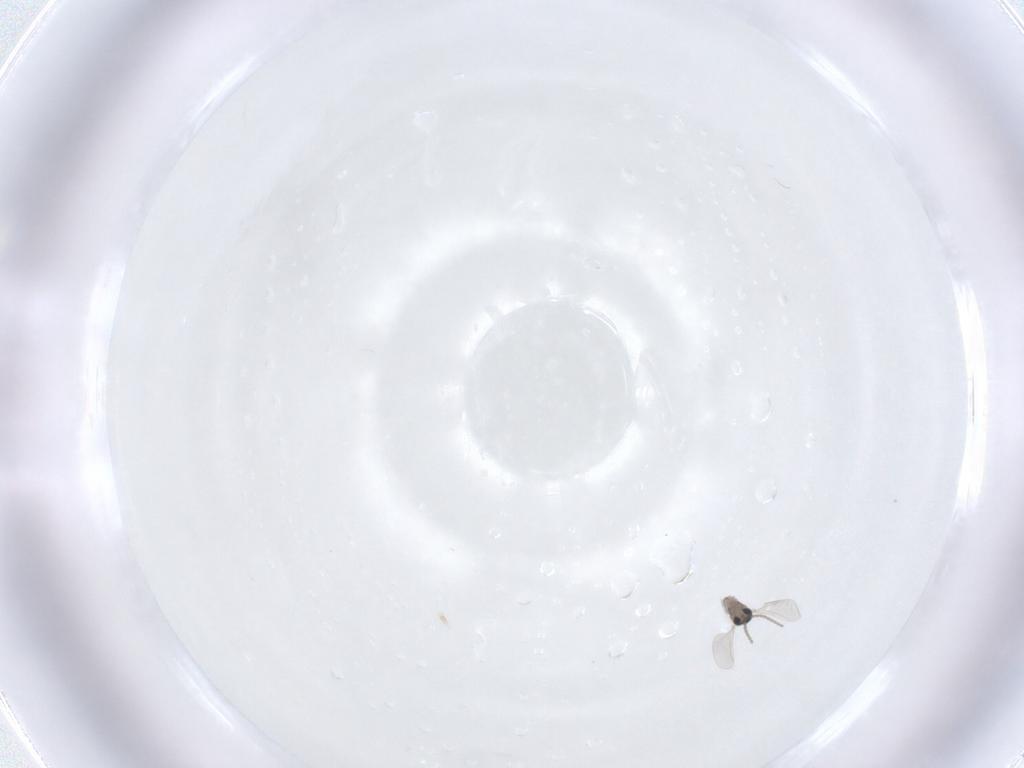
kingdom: Animalia
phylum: Arthropoda
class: Insecta
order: Diptera
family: Cecidomyiidae
